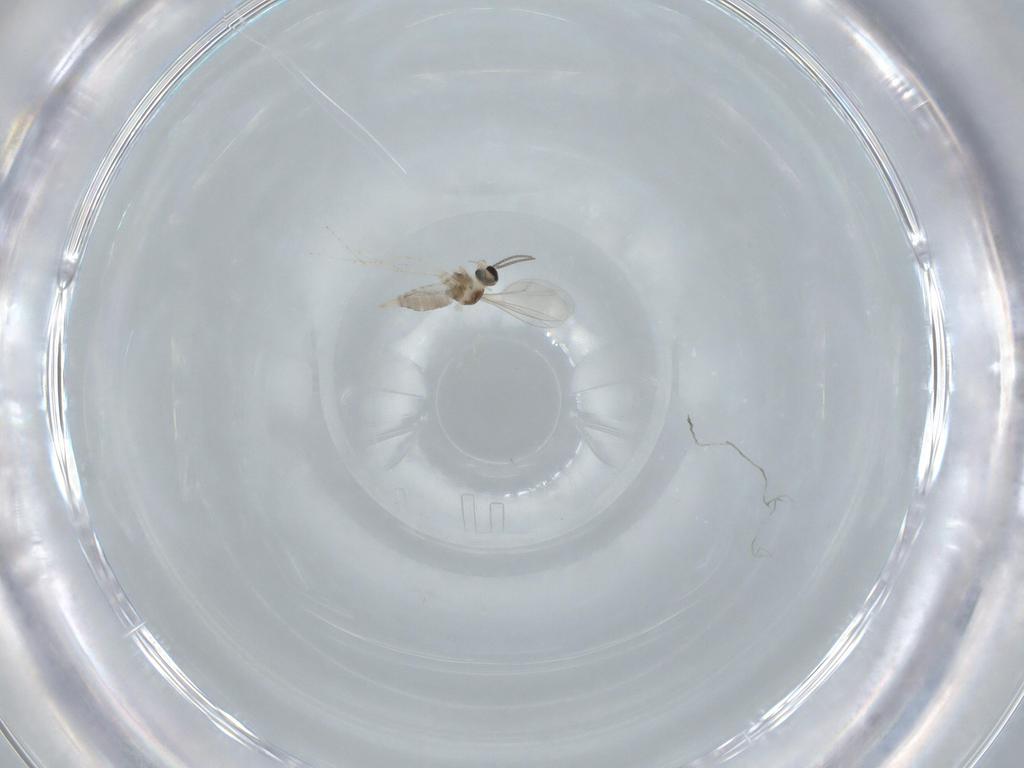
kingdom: Animalia
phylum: Arthropoda
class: Insecta
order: Diptera
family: Cecidomyiidae
